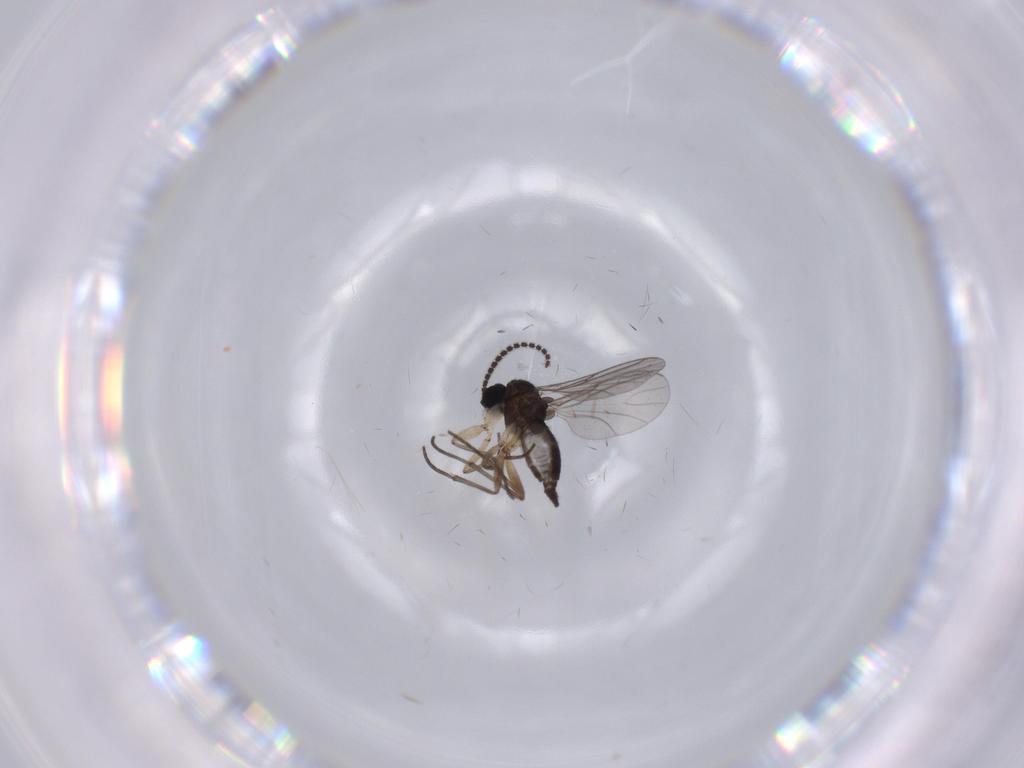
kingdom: Animalia
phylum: Arthropoda
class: Insecta
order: Diptera
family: Sciaridae
